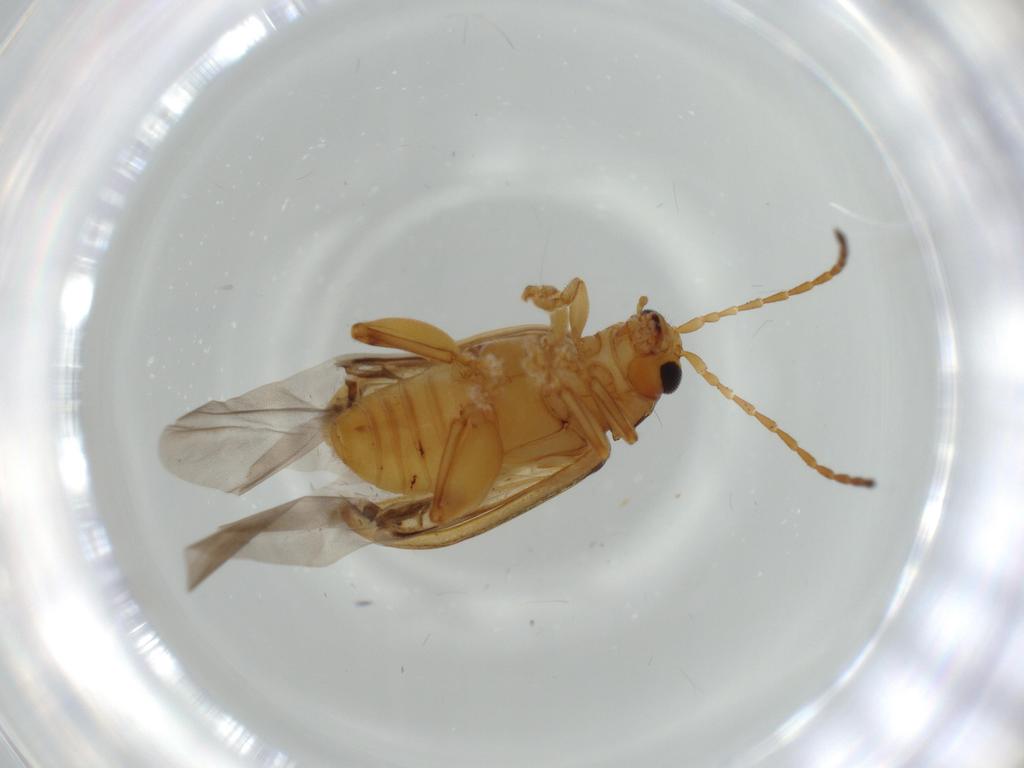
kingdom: Animalia
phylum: Arthropoda
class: Insecta
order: Coleoptera
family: Chrysomelidae
